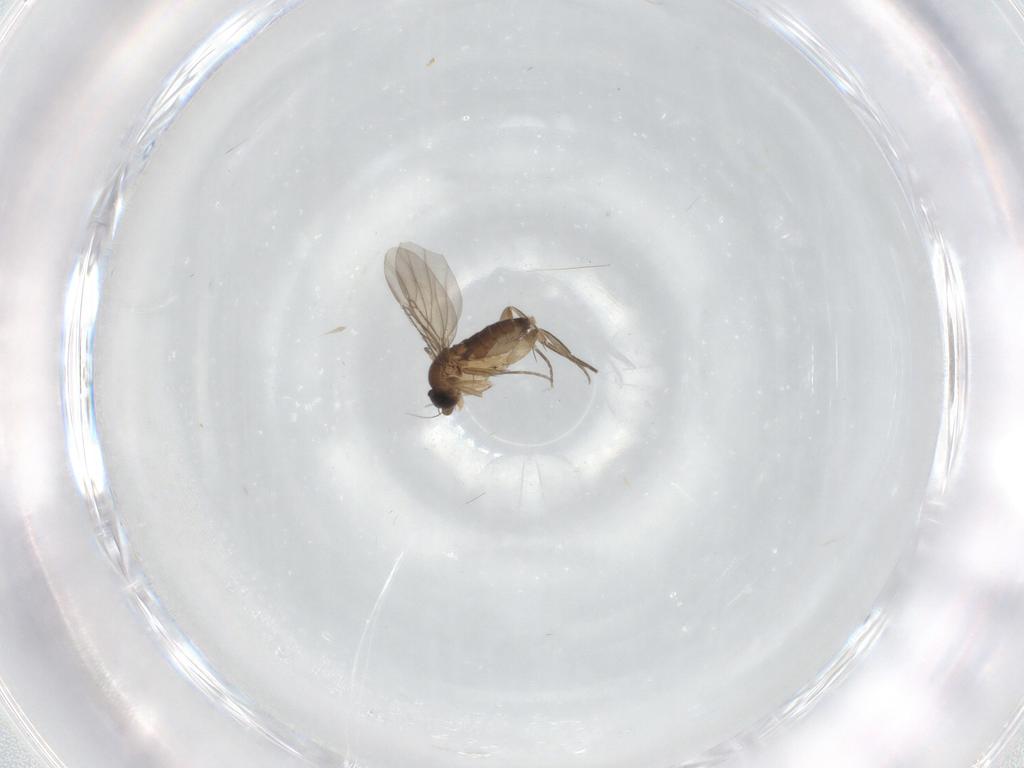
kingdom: Animalia
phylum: Arthropoda
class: Insecta
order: Diptera
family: Phoridae
